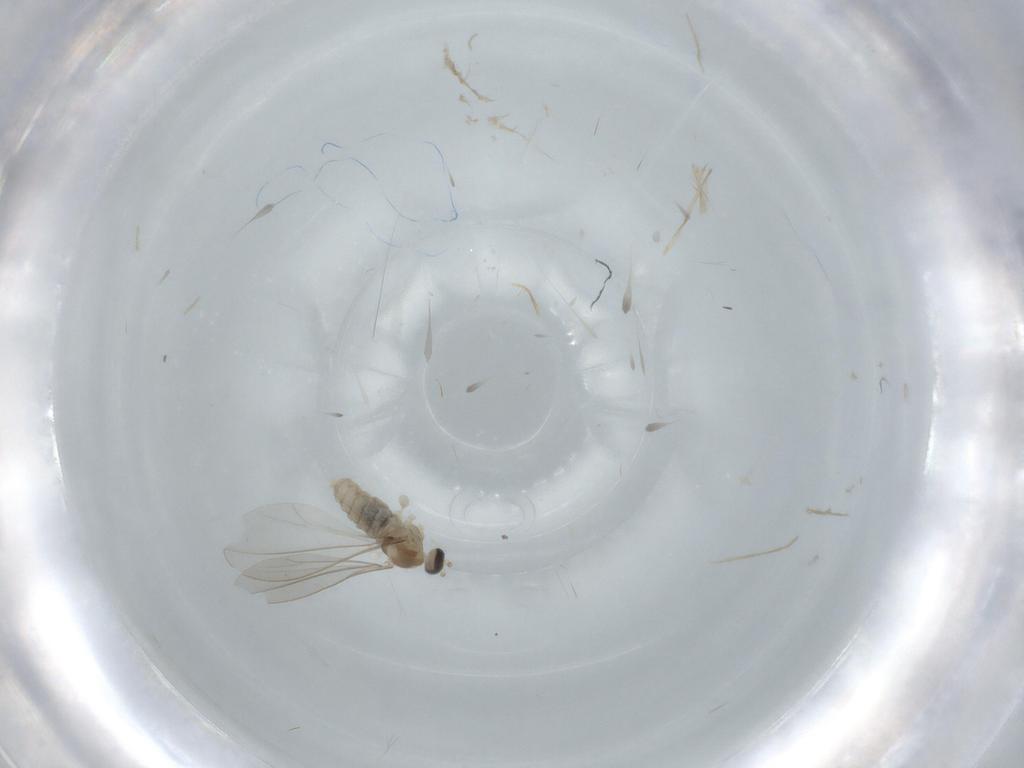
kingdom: Animalia
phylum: Arthropoda
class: Insecta
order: Diptera
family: Cecidomyiidae
